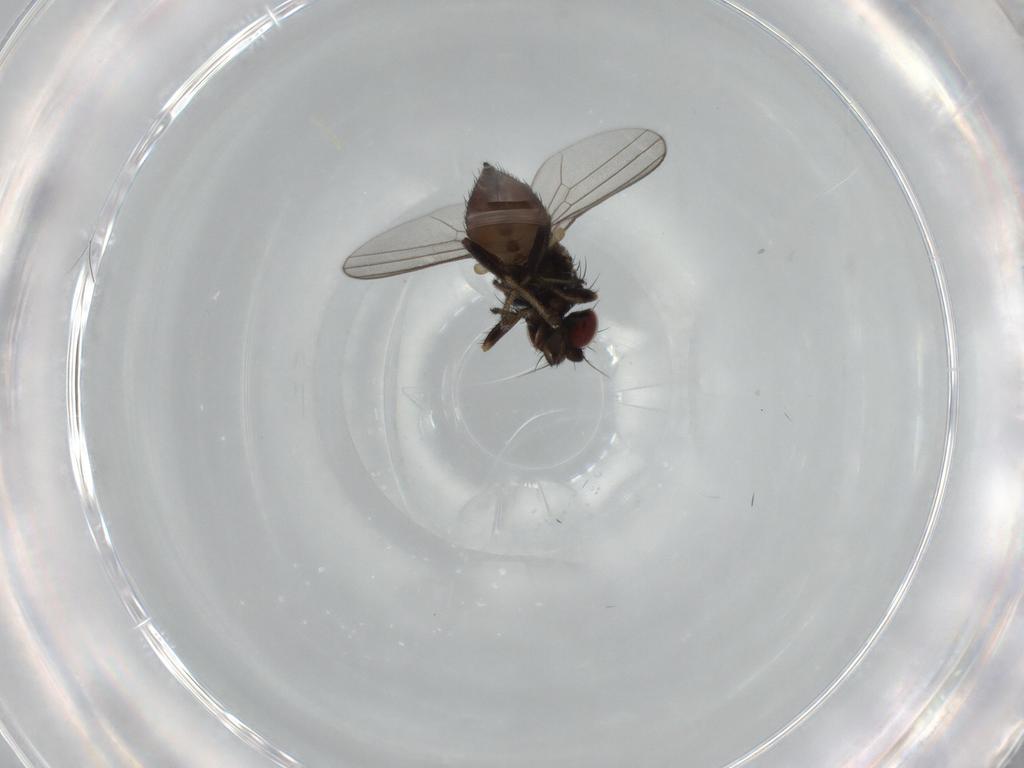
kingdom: Animalia
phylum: Arthropoda
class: Insecta
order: Diptera
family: Milichiidae
